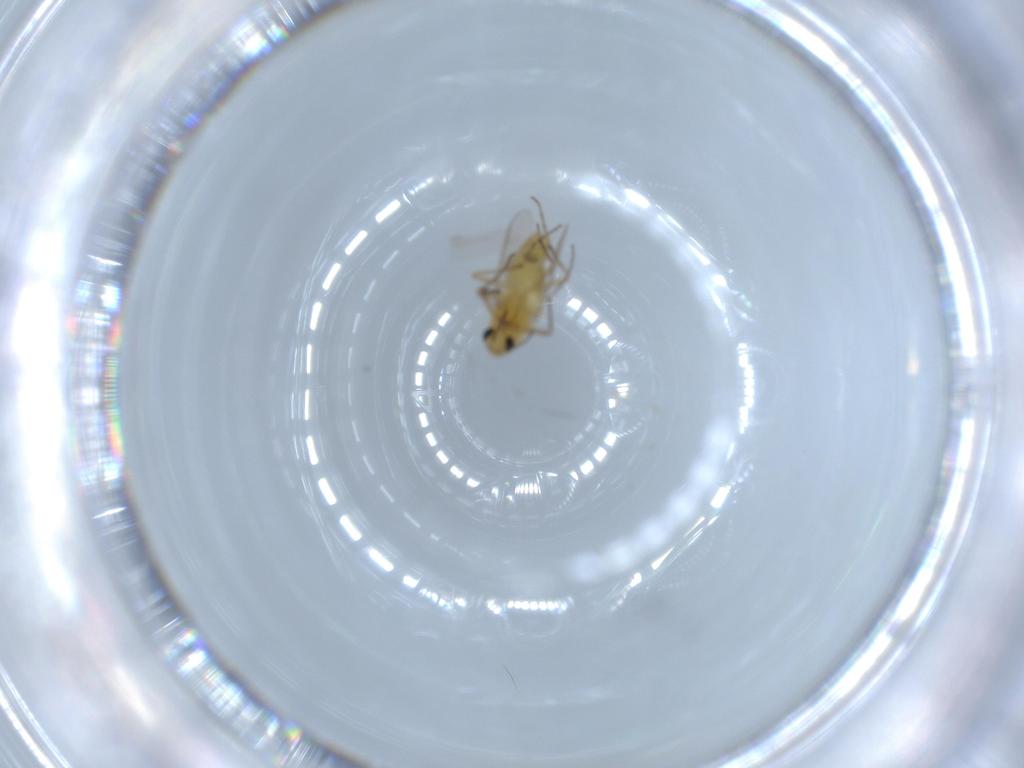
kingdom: Animalia
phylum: Arthropoda
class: Insecta
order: Diptera
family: Chironomidae
